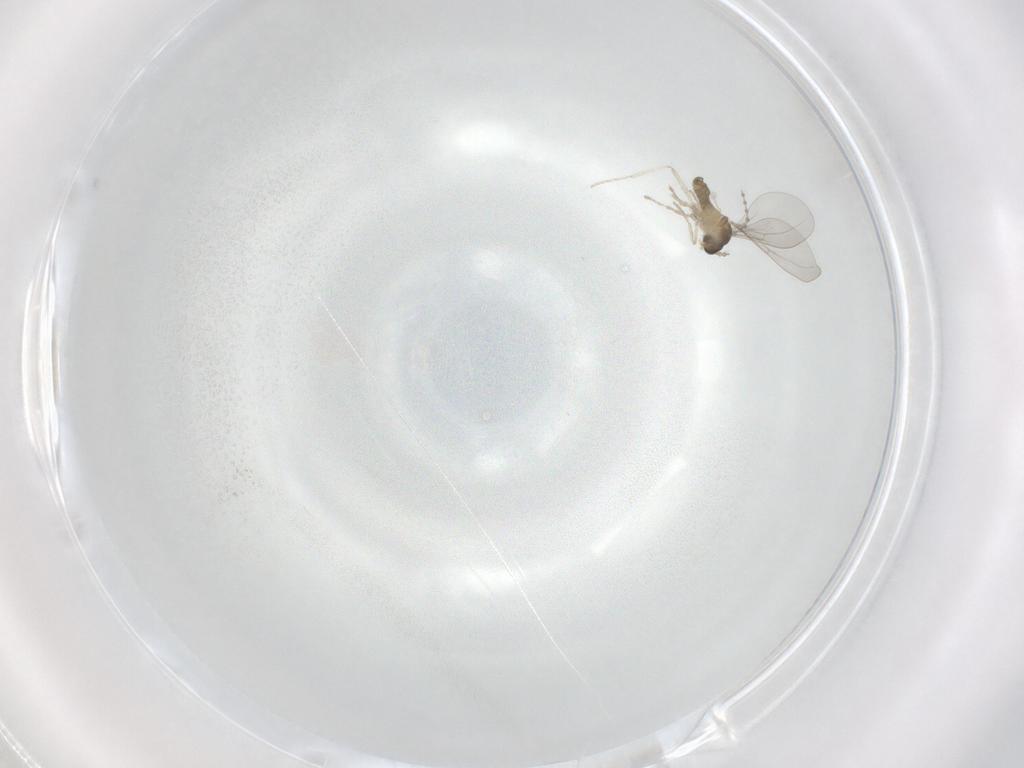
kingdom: Animalia
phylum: Arthropoda
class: Insecta
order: Diptera
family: Cecidomyiidae
